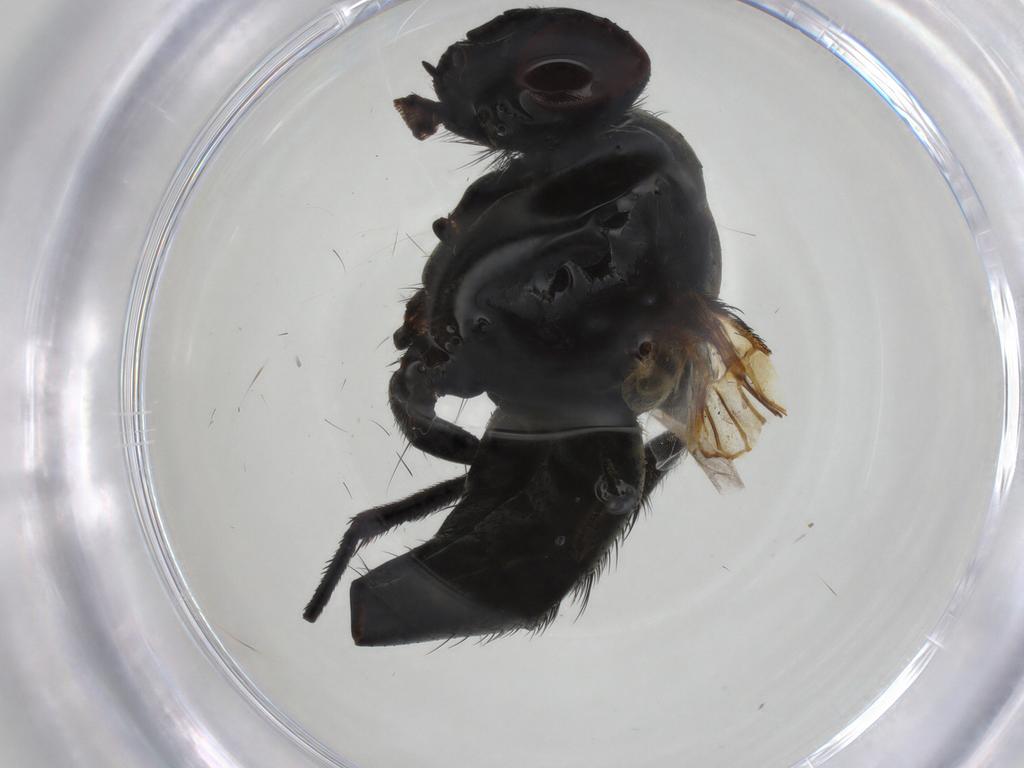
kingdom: Animalia
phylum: Arthropoda
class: Insecta
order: Diptera
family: Muscidae
